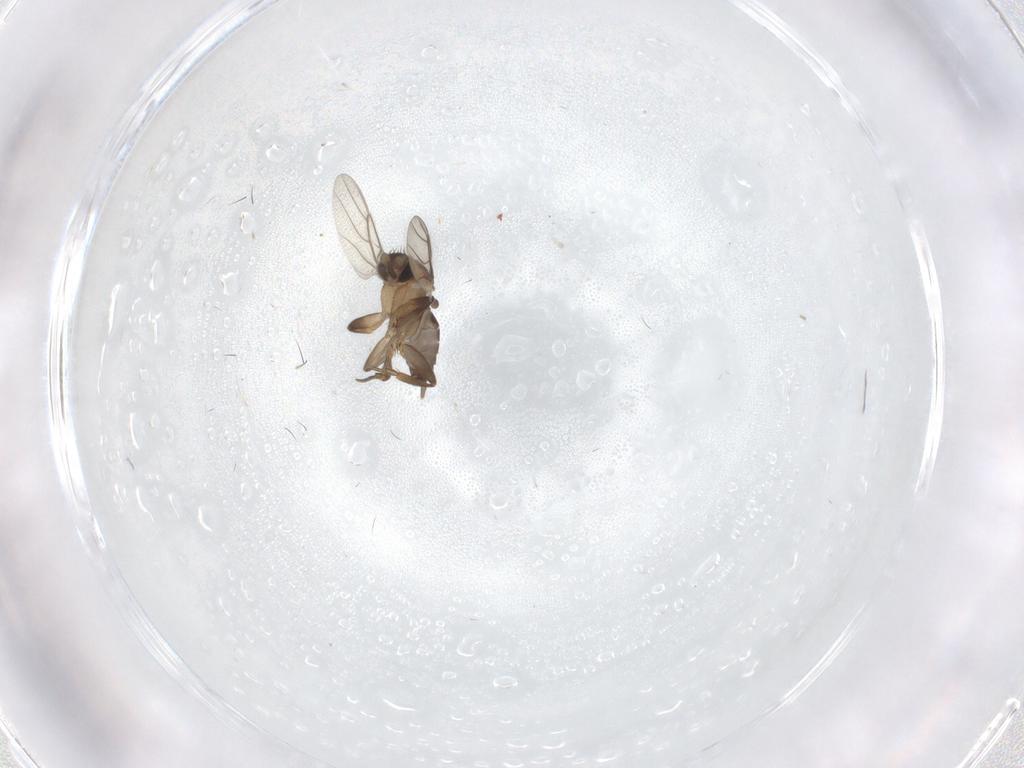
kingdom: Animalia
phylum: Arthropoda
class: Insecta
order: Diptera
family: Phoridae
